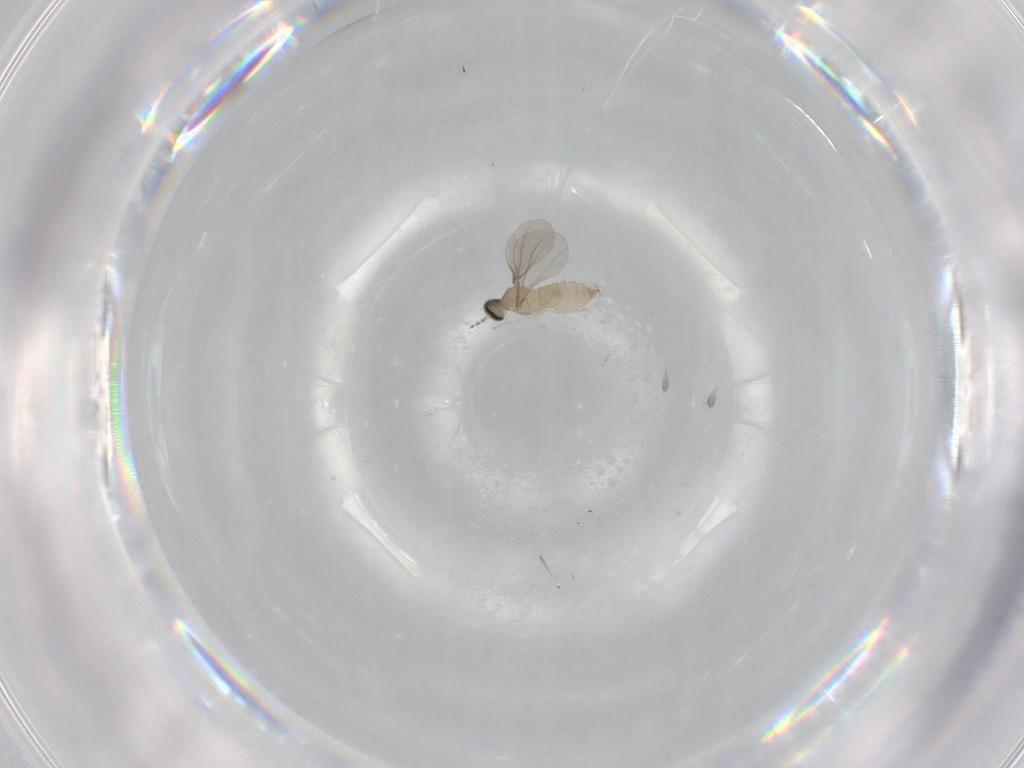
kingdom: Animalia
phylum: Arthropoda
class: Insecta
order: Diptera
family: Cecidomyiidae
